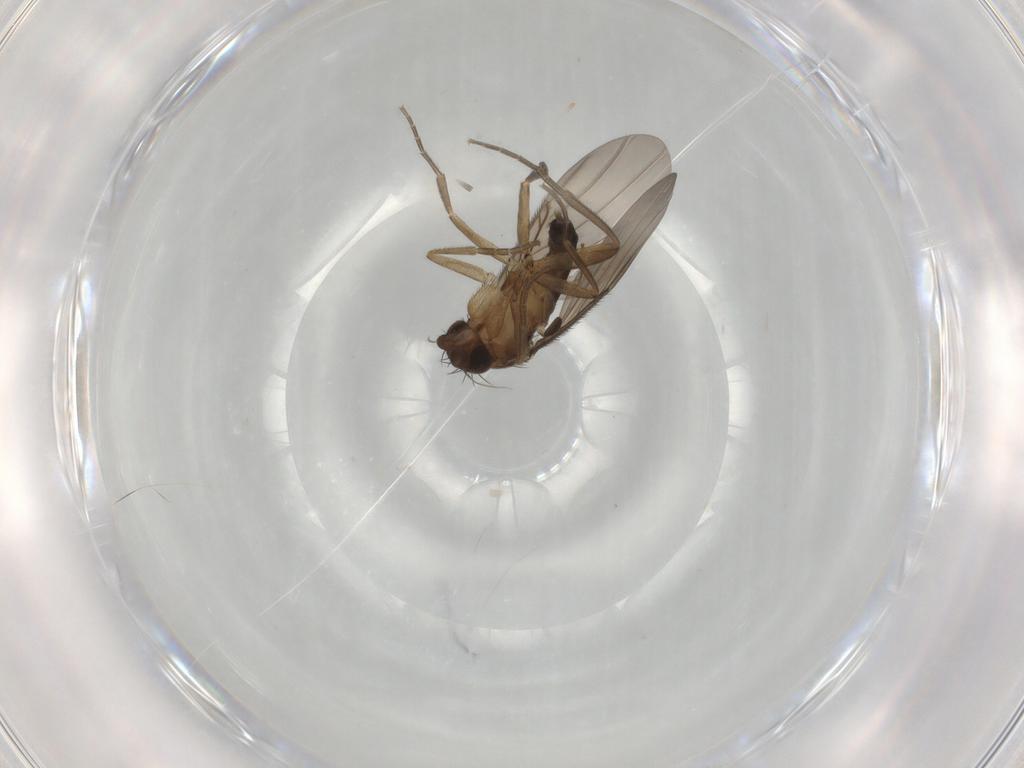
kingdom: Animalia
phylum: Arthropoda
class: Insecta
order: Diptera
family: Phoridae
